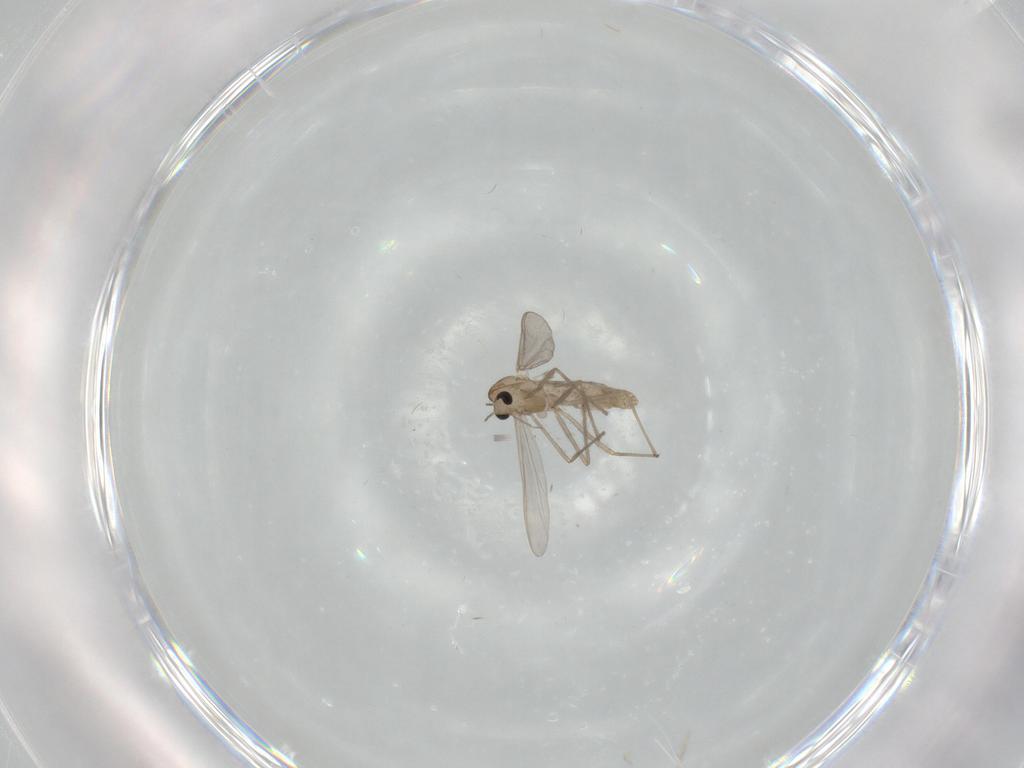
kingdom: Animalia
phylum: Arthropoda
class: Insecta
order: Diptera
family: Chironomidae
